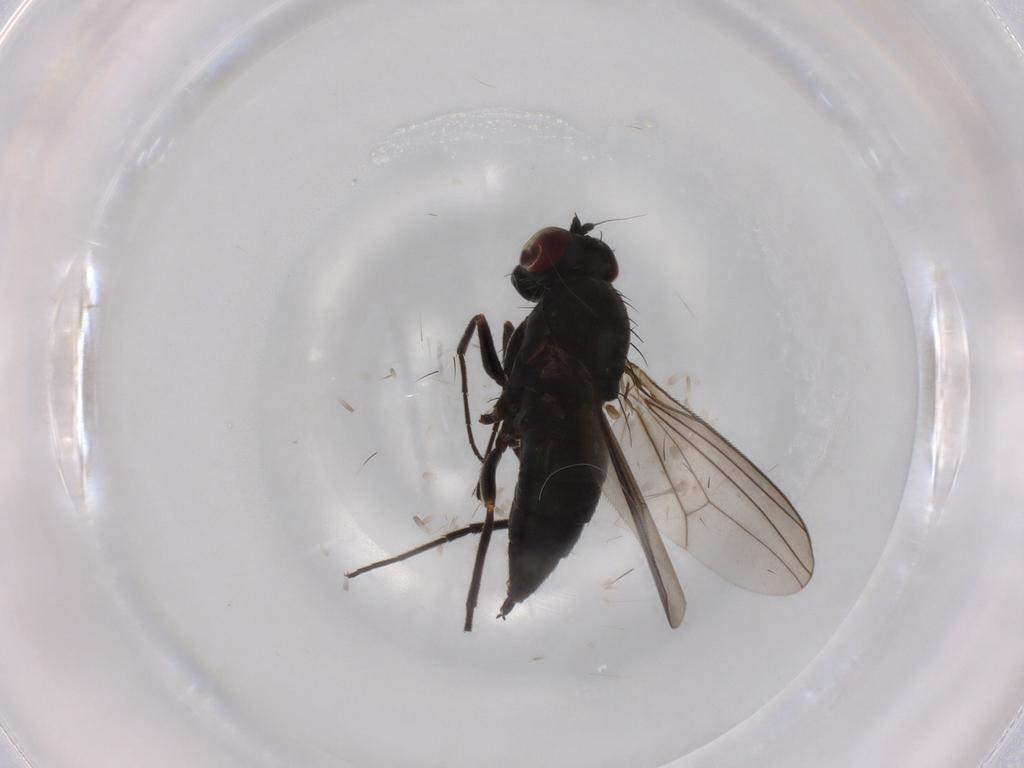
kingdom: Animalia
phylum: Arthropoda
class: Insecta
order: Diptera
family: Dolichopodidae
